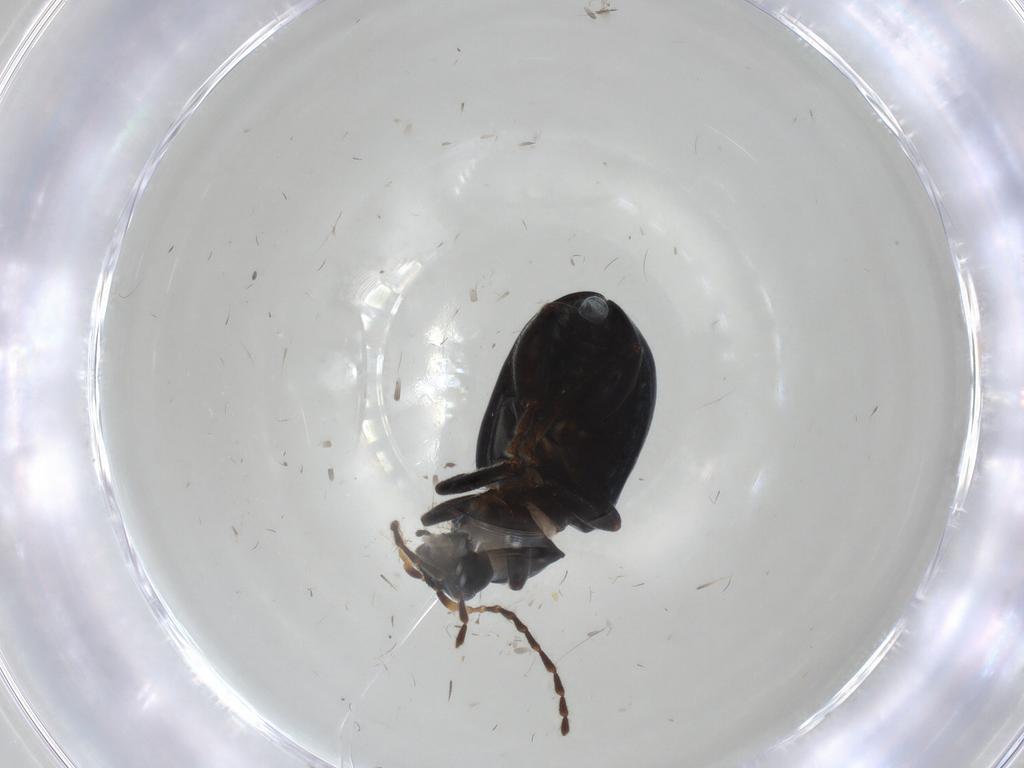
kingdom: Animalia
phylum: Arthropoda
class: Insecta
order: Coleoptera
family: Chrysomelidae
